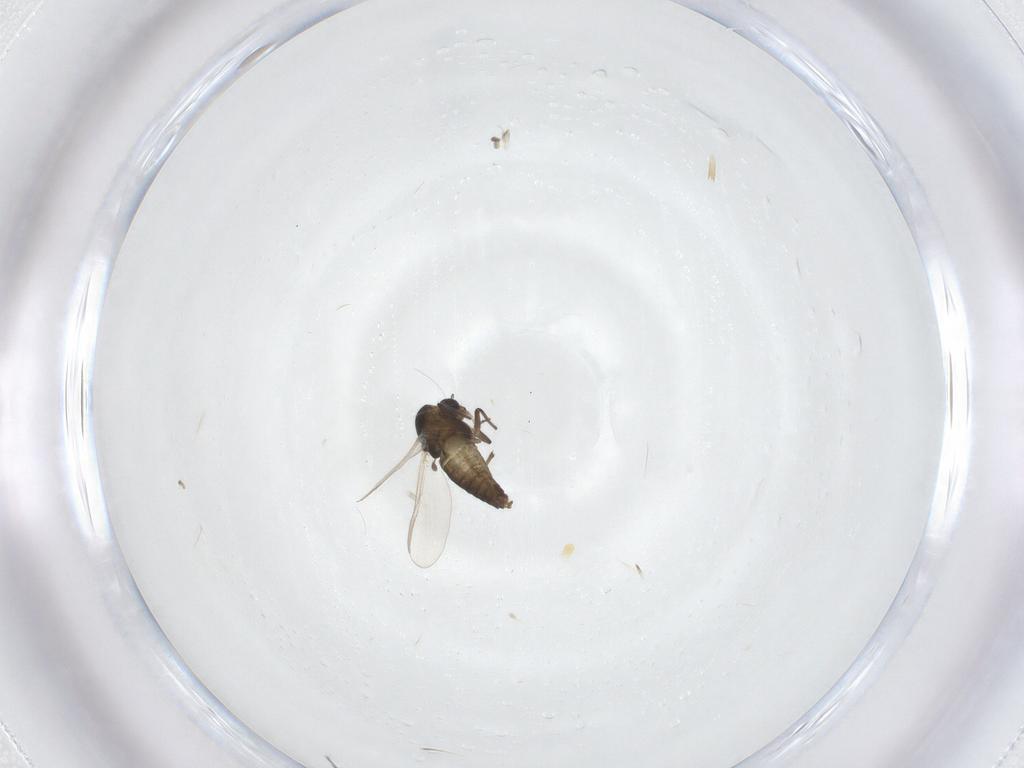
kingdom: Animalia
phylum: Arthropoda
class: Insecta
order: Diptera
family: Chironomidae
